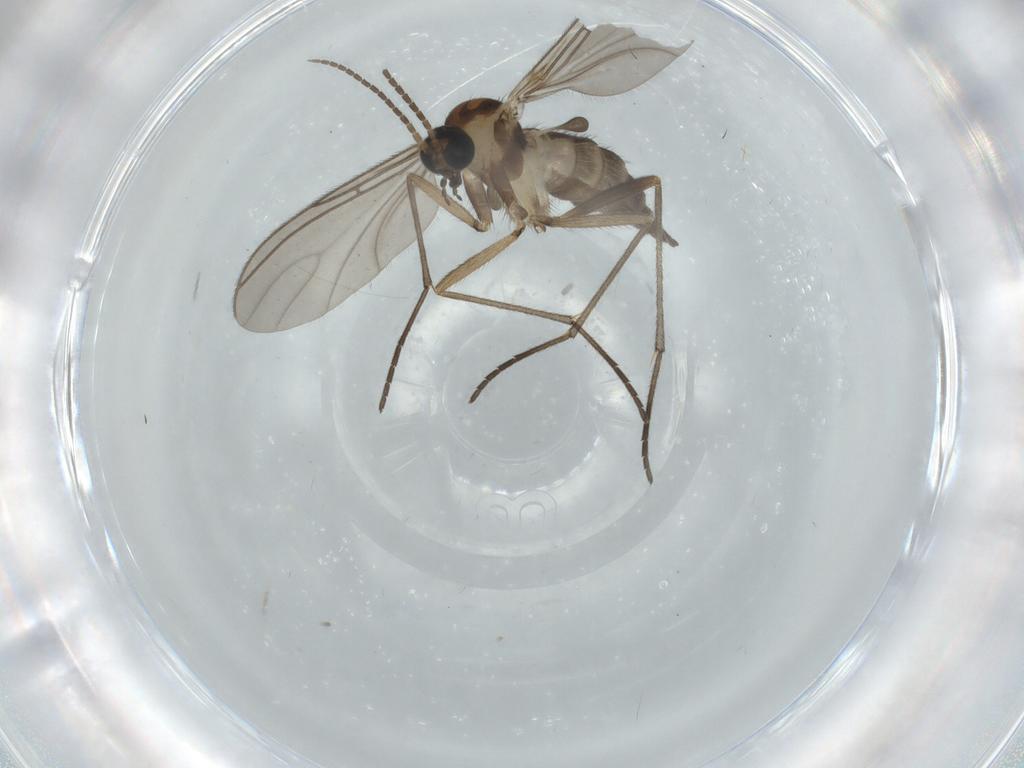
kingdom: Animalia
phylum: Arthropoda
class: Insecta
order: Diptera
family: Sciaridae
